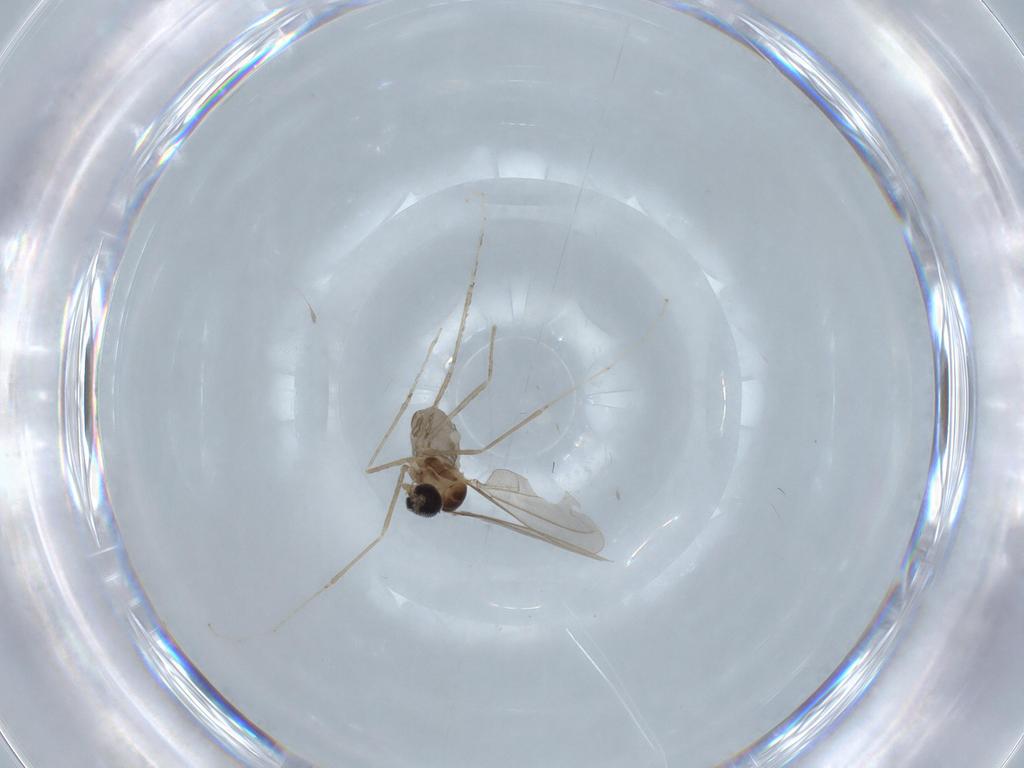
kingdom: Animalia
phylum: Arthropoda
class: Insecta
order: Diptera
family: Cecidomyiidae
